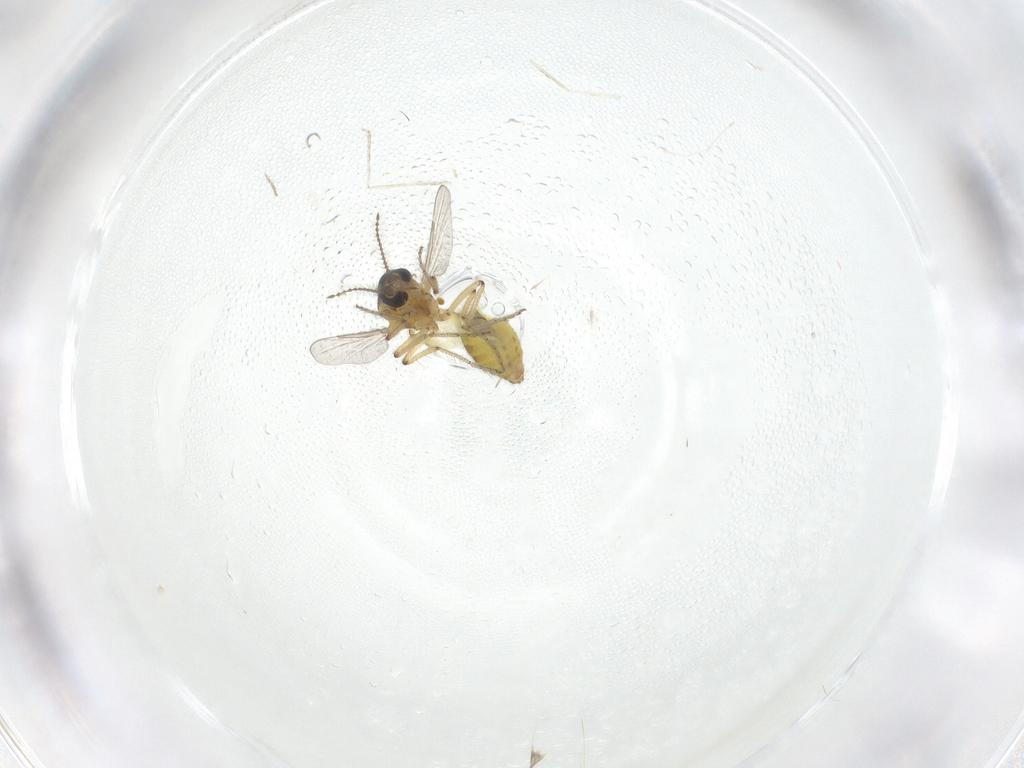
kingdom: Animalia
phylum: Arthropoda
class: Insecta
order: Diptera
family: Ceratopogonidae
